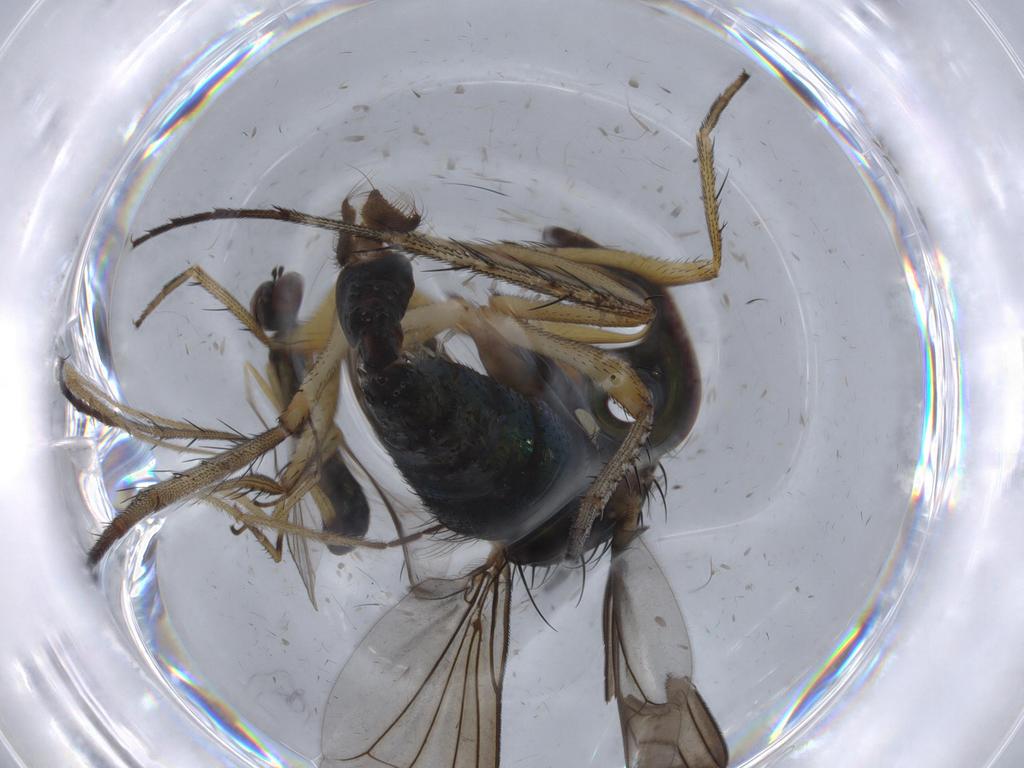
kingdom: Animalia
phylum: Arthropoda
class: Insecta
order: Diptera
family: Dolichopodidae
